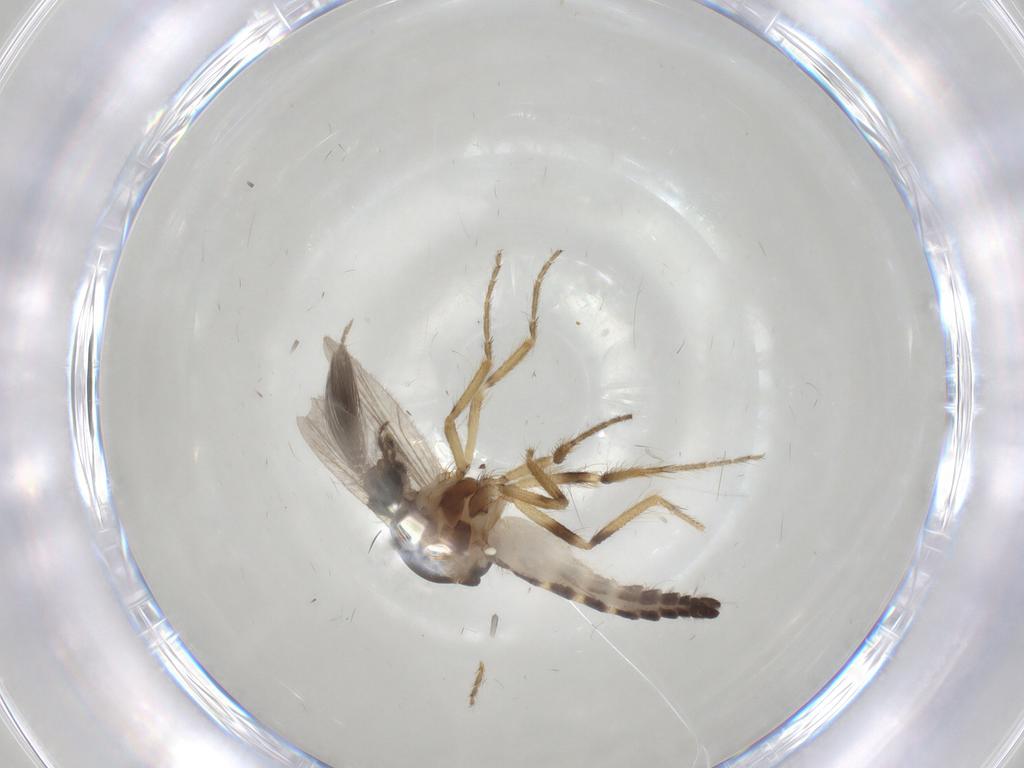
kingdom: Animalia
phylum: Arthropoda
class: Insecta
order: Diptera
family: Ceratopogonidae
